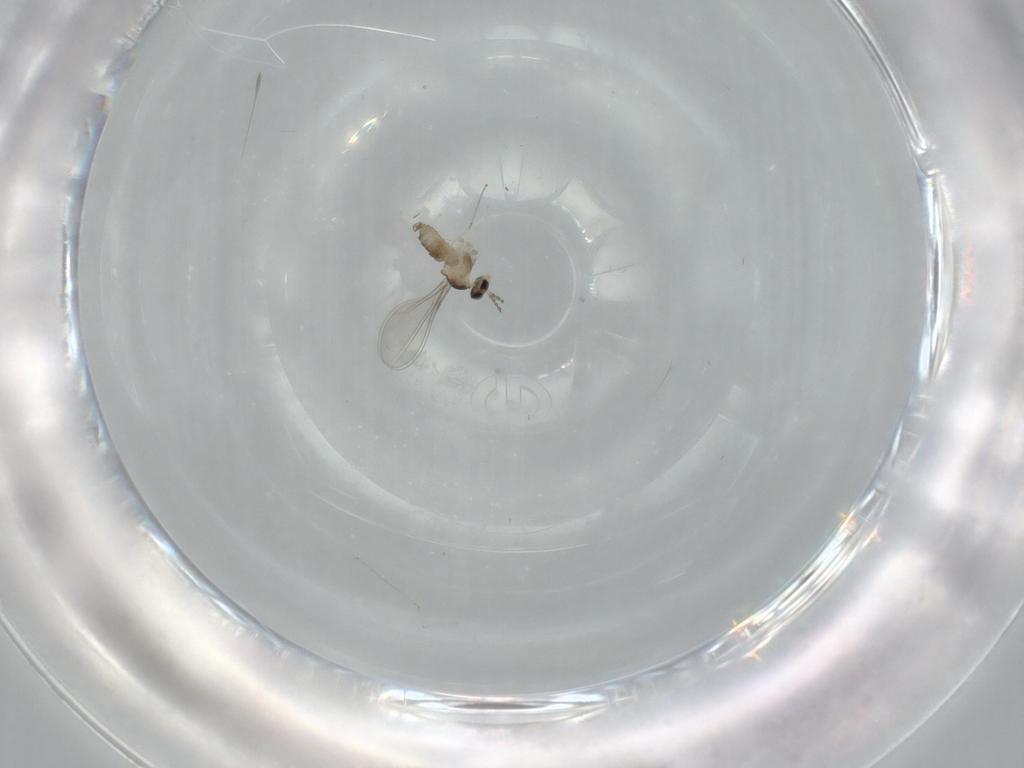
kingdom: Animalia
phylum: Arthropoda
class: Insecta
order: Diptera
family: Cecidomyiidae
